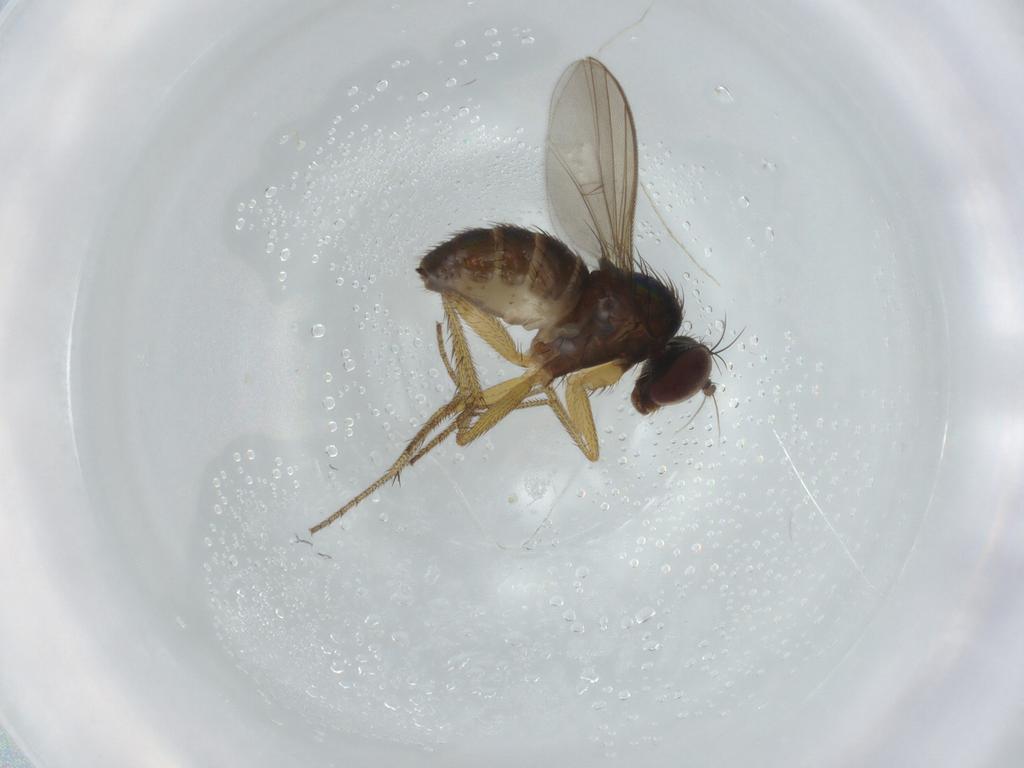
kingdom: Animalia
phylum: Arthropoda
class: Insecta
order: Diptera
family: Dolichopodidae
